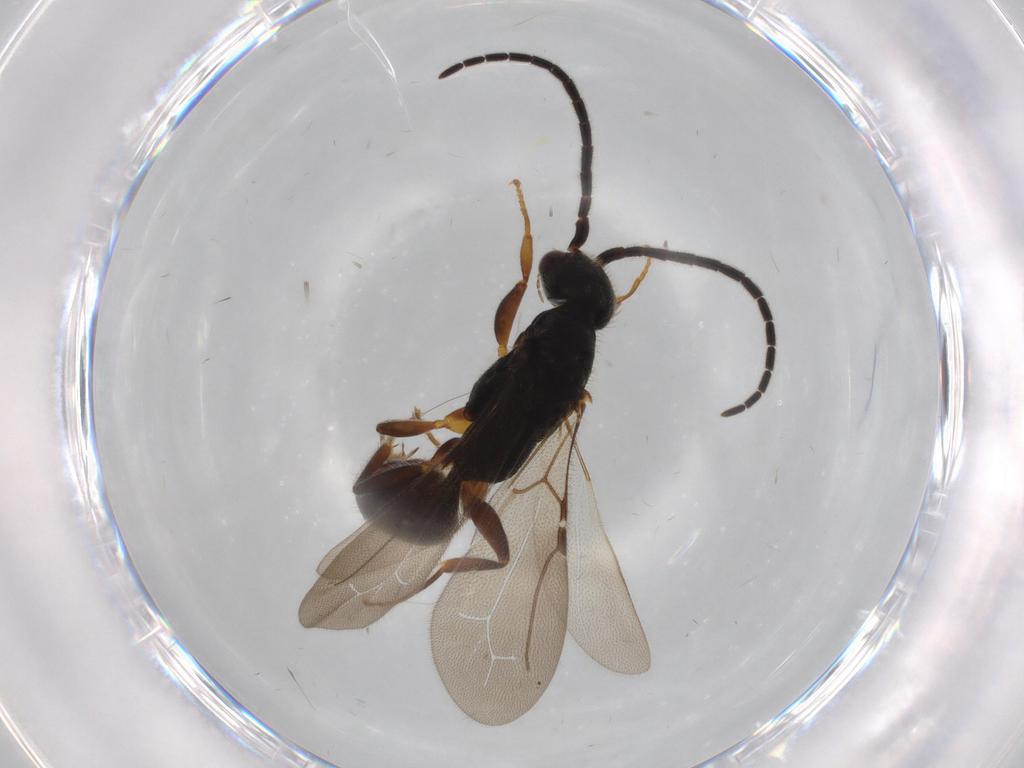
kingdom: Animalia
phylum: Arthropoda
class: Insecta
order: Hymenoptera
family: Bethylidae
